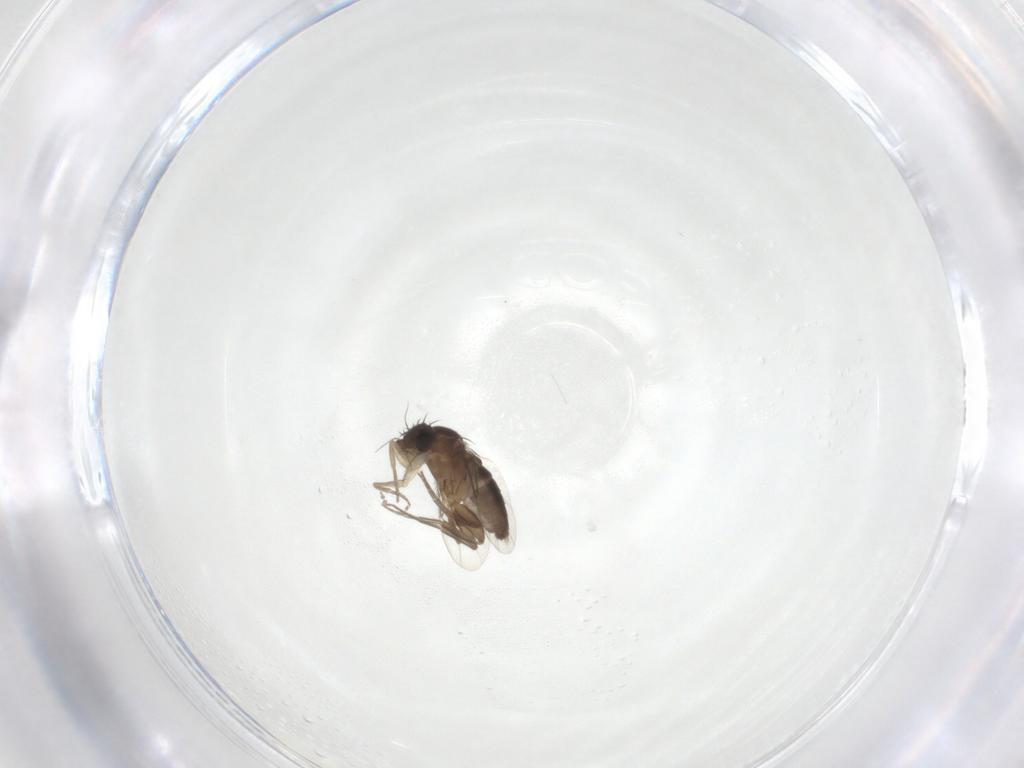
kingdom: Animalia
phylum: Arthropoda
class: Insecta
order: Diptera
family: Phoridae
